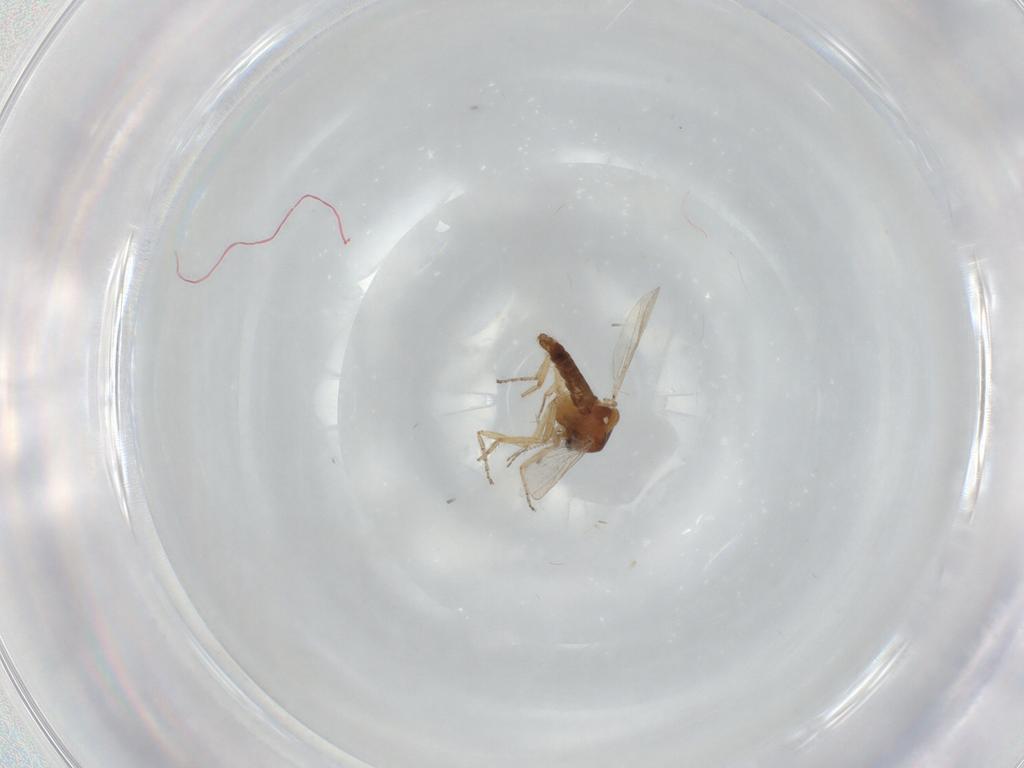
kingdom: Animalia
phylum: Arthropoda
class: Insecta
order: Diptera
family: Ceratopogonidae
